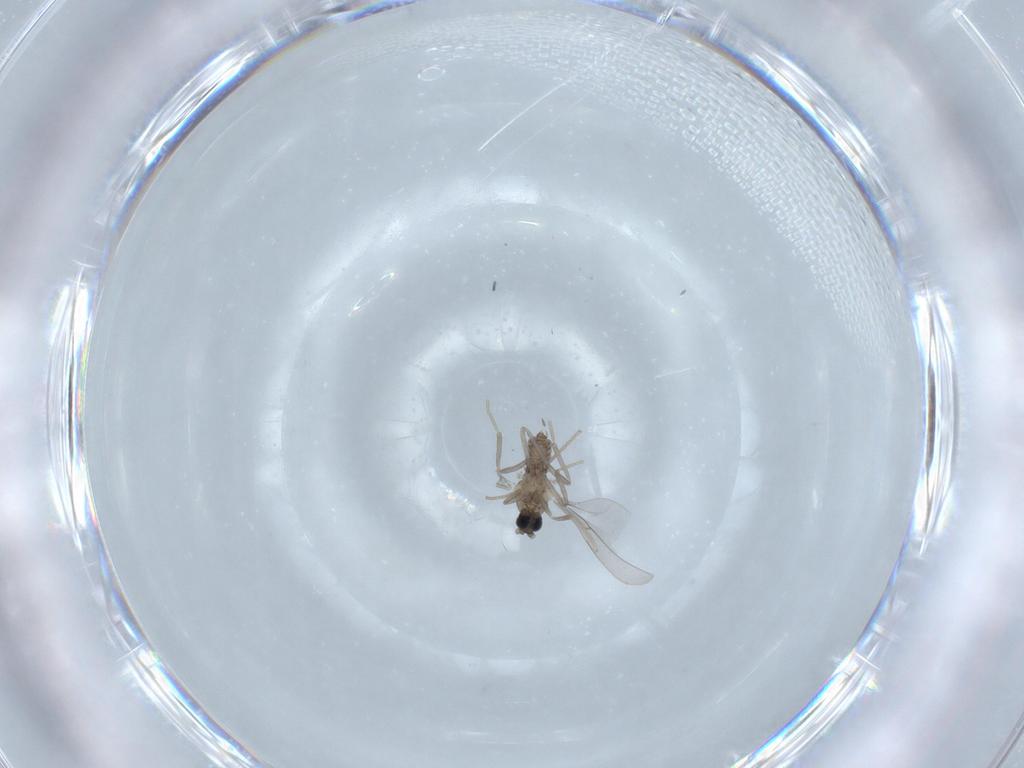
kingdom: Animalia
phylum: Arthropoda
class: Insecta
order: Diptera
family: Cecidomyiidae
